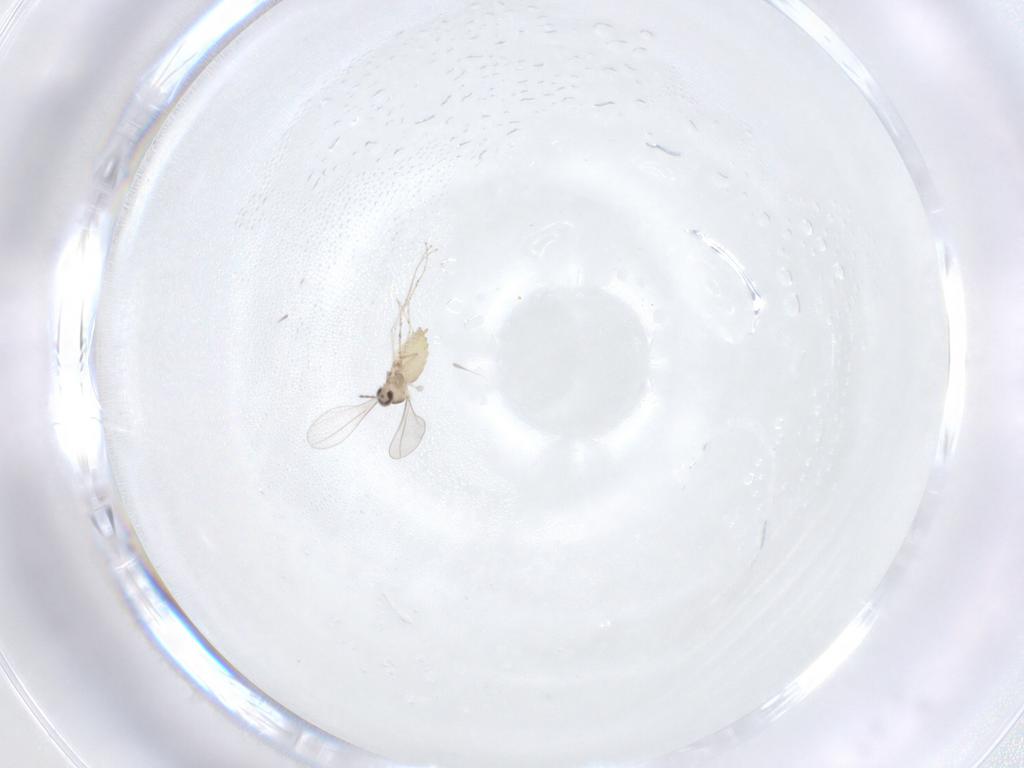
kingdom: Animalia
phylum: Arthropoda
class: Insecta
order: Diptera
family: Cecidomyiidae
